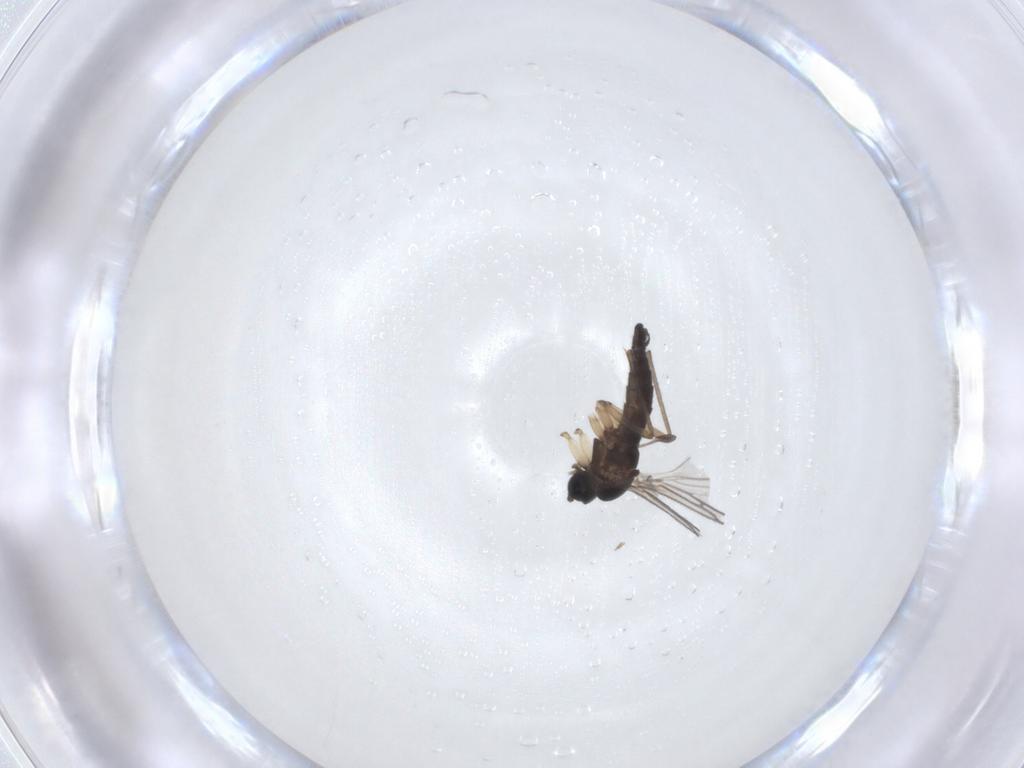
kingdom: Animalia
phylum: Arthropoda
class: Insecta
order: Diptera
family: Sciaridae
